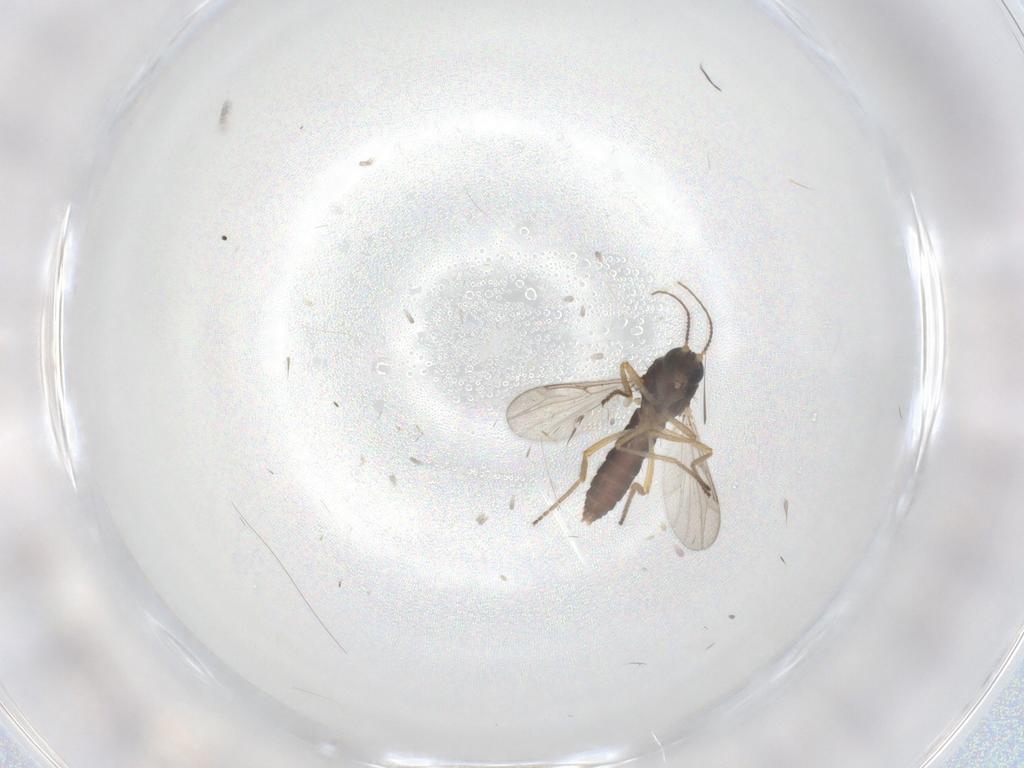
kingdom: Animalia
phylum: Arthropoda
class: Insecta
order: Diptera
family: Ceratopogonidae
